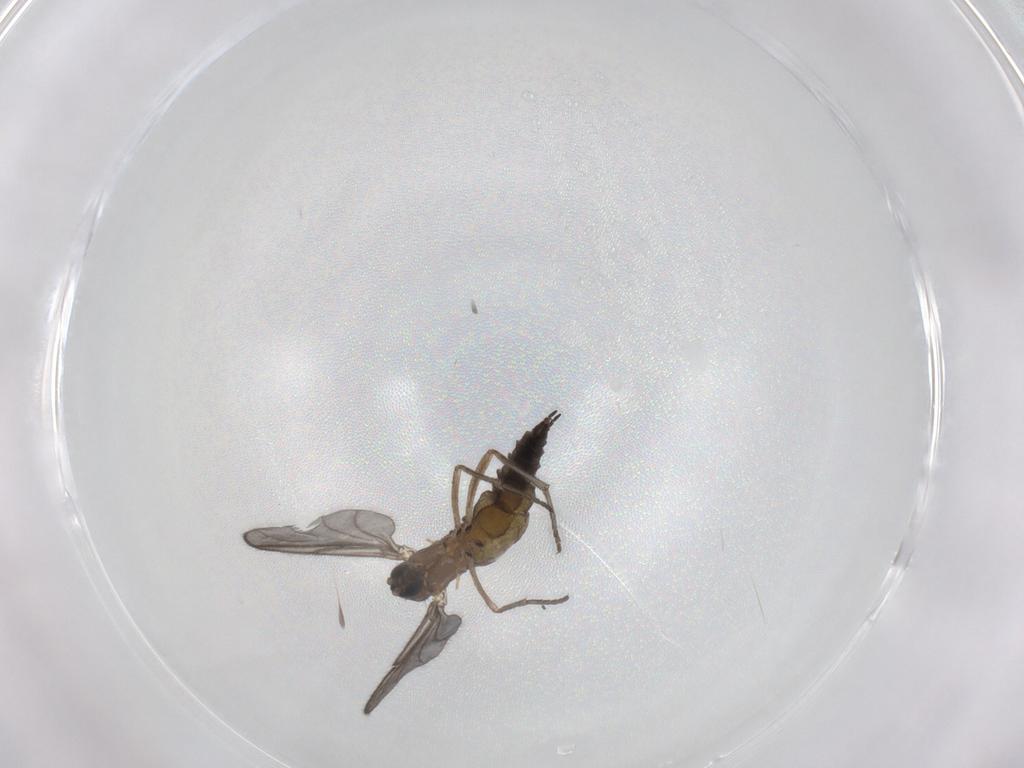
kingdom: Animalia
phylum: Arthropoda
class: Insecta
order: Diptera
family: Sciaridae
